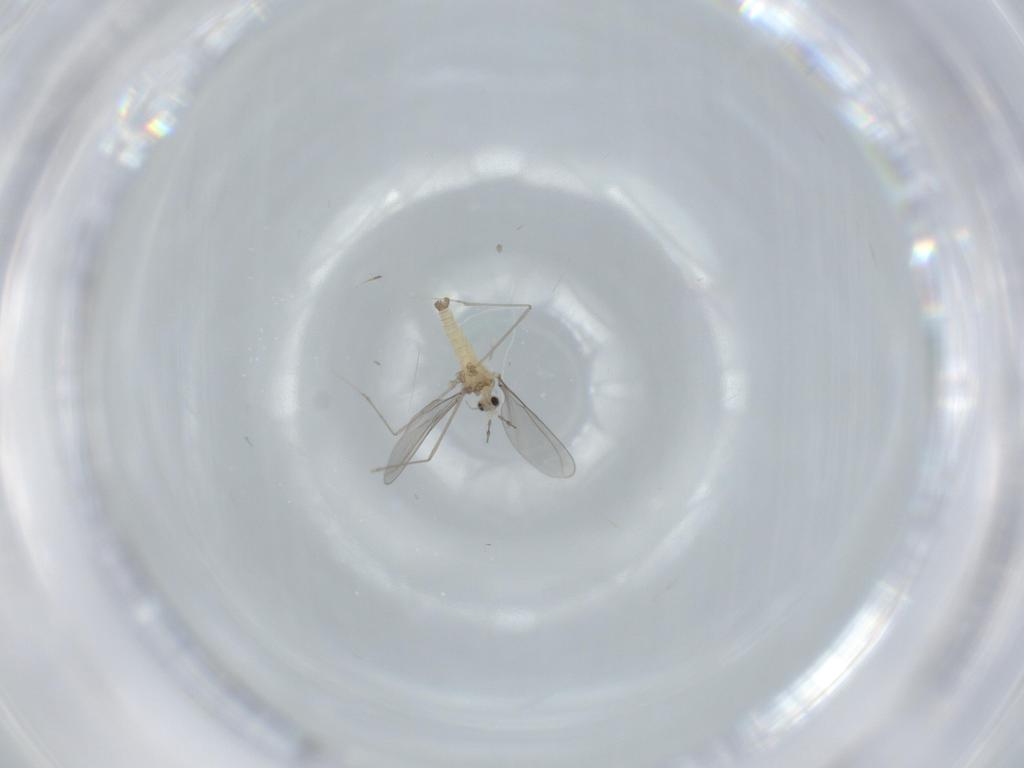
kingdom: Animalia
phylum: Arthropoda
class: Insecta
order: Diptera
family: Cecidomyiidae
